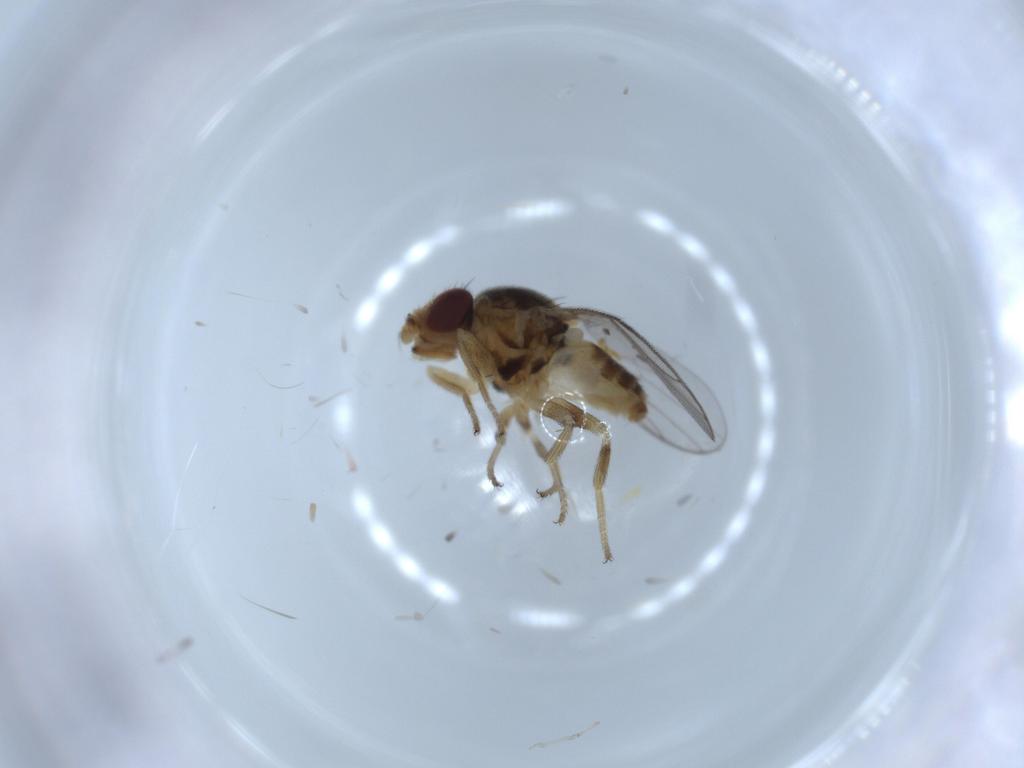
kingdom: Animalia
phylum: Arthropoda
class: Insecta
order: Diptera
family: Chloropidae
